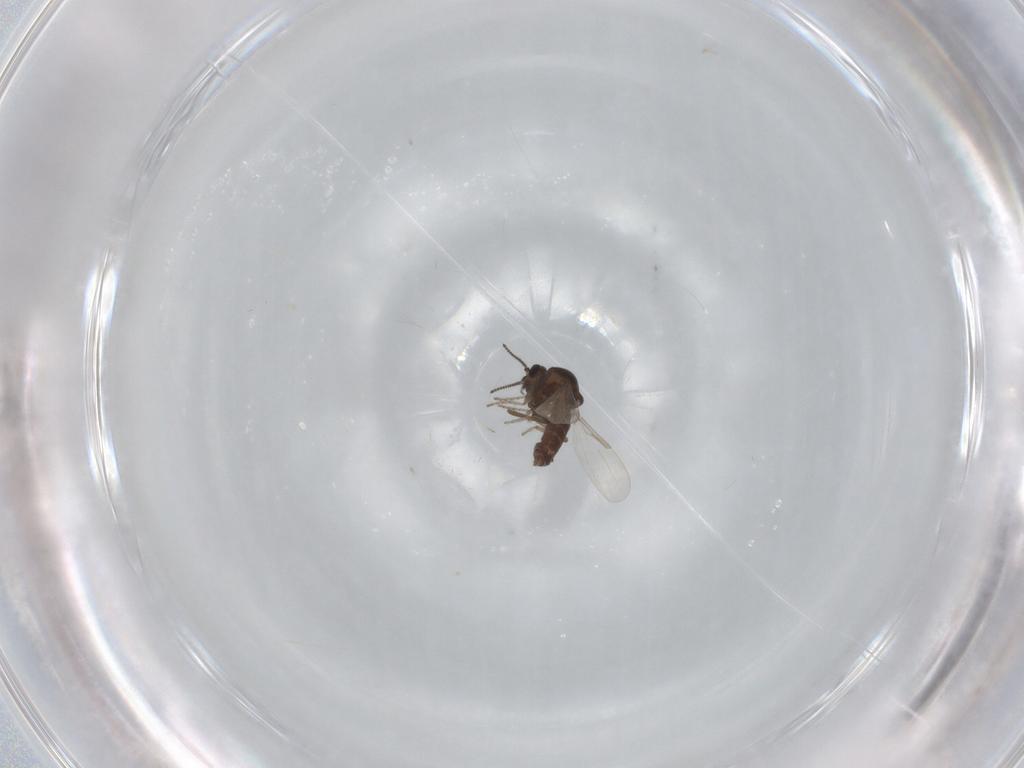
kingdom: Animalia
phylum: Arthropoda
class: Insecta
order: Diptera
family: Ceratopogonidae
